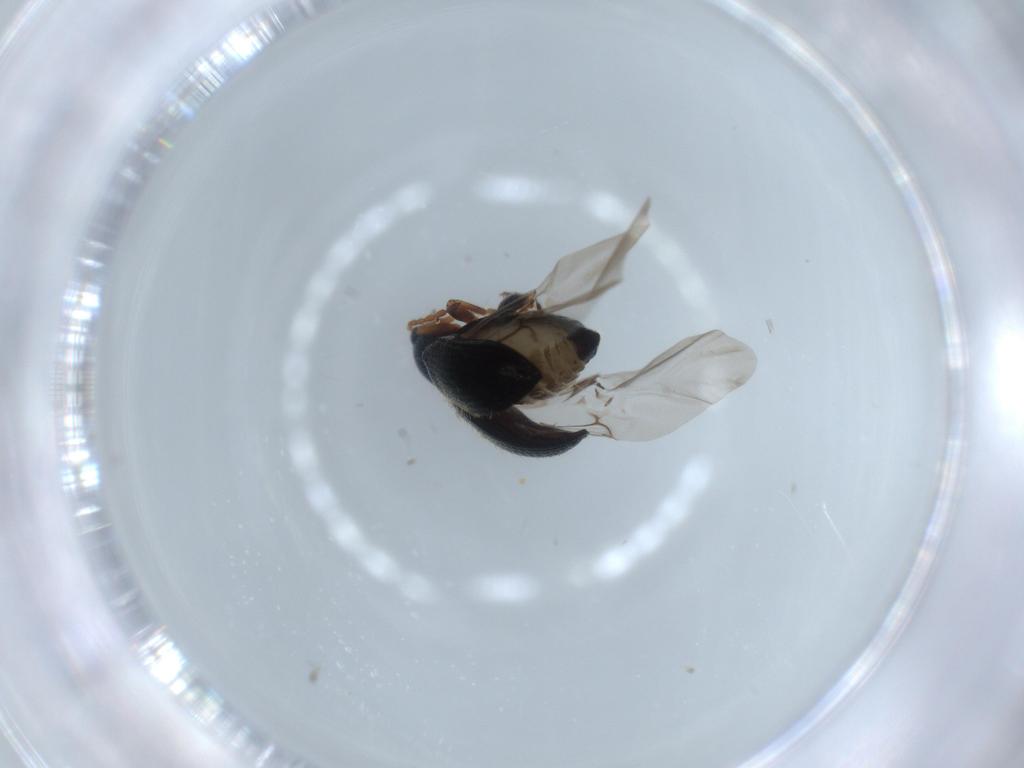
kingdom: Animalia
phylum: Arthropoda
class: Insecta
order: Coleoptera
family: Chrysomelidae
